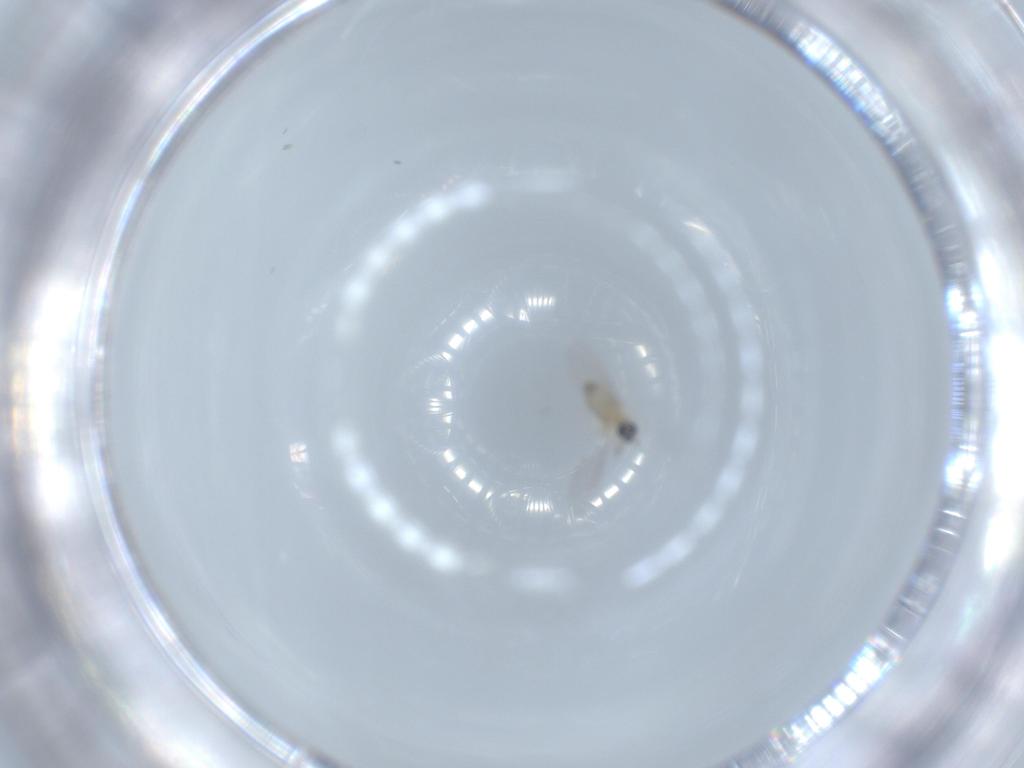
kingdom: Animalia
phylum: Arthropoda
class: Insecta
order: Diptera
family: Cecidomyiidae
